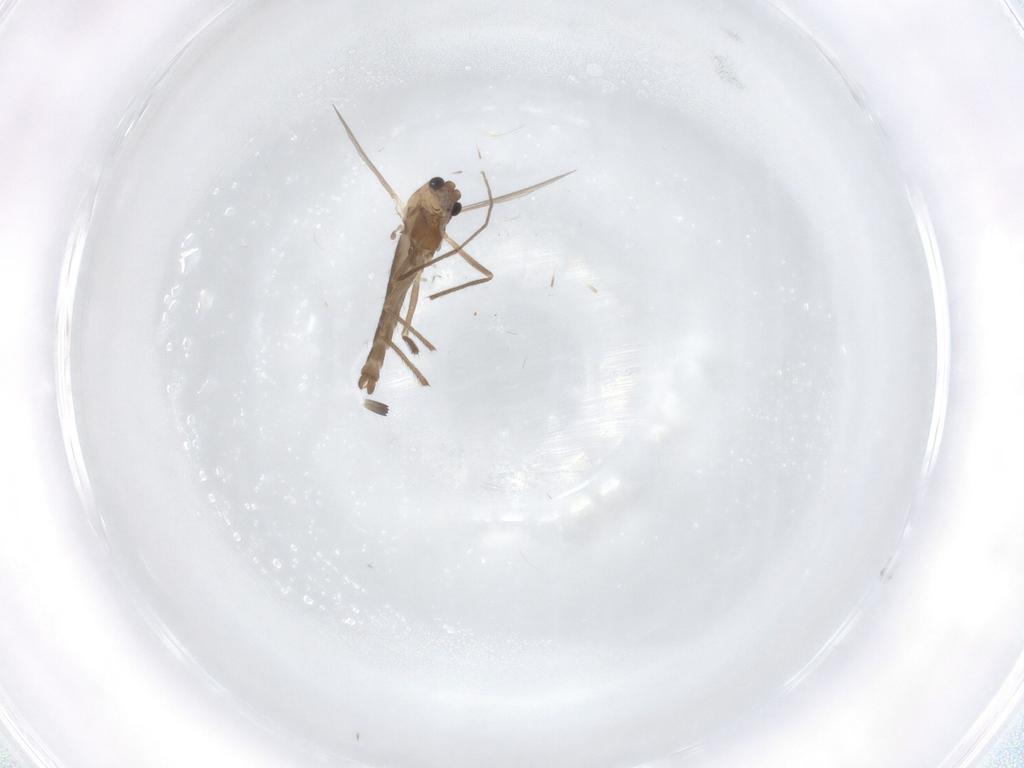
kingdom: Animalia
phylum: Arthropoda
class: Insecta
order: Diptera
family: Chironomidae
